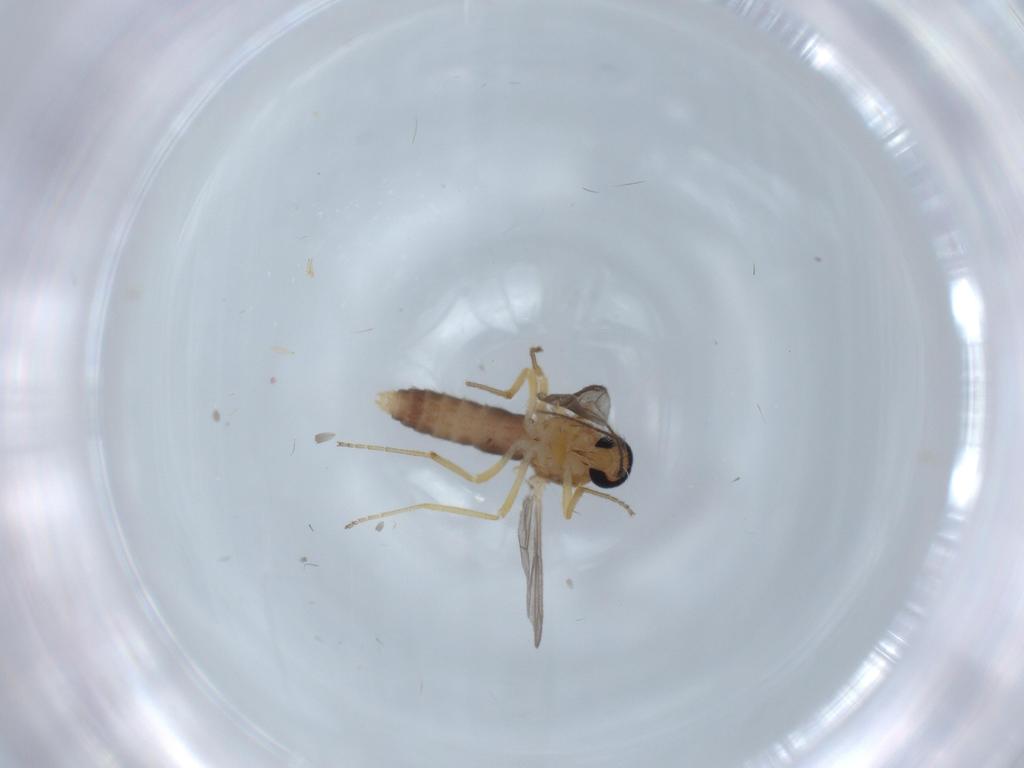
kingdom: Animalia
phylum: Arthropoda
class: Insecta
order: Diptera
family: Ceratopogonidae
